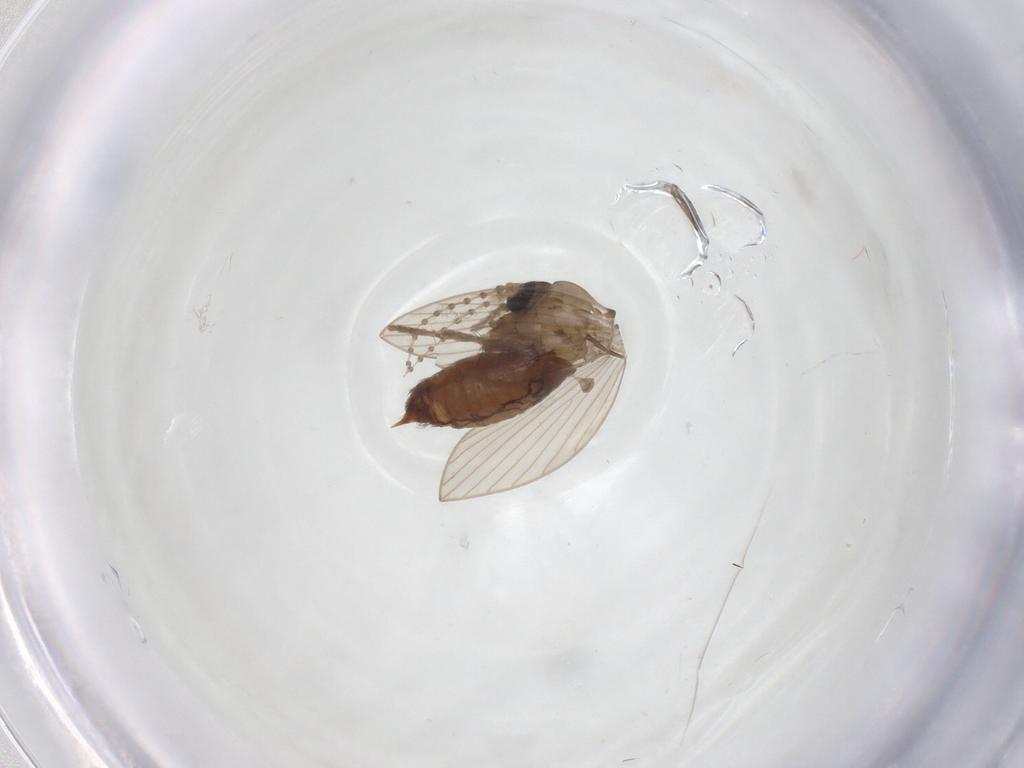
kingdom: Animalia
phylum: Arthropoda
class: Insecta
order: Diptera
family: Psychodidae
